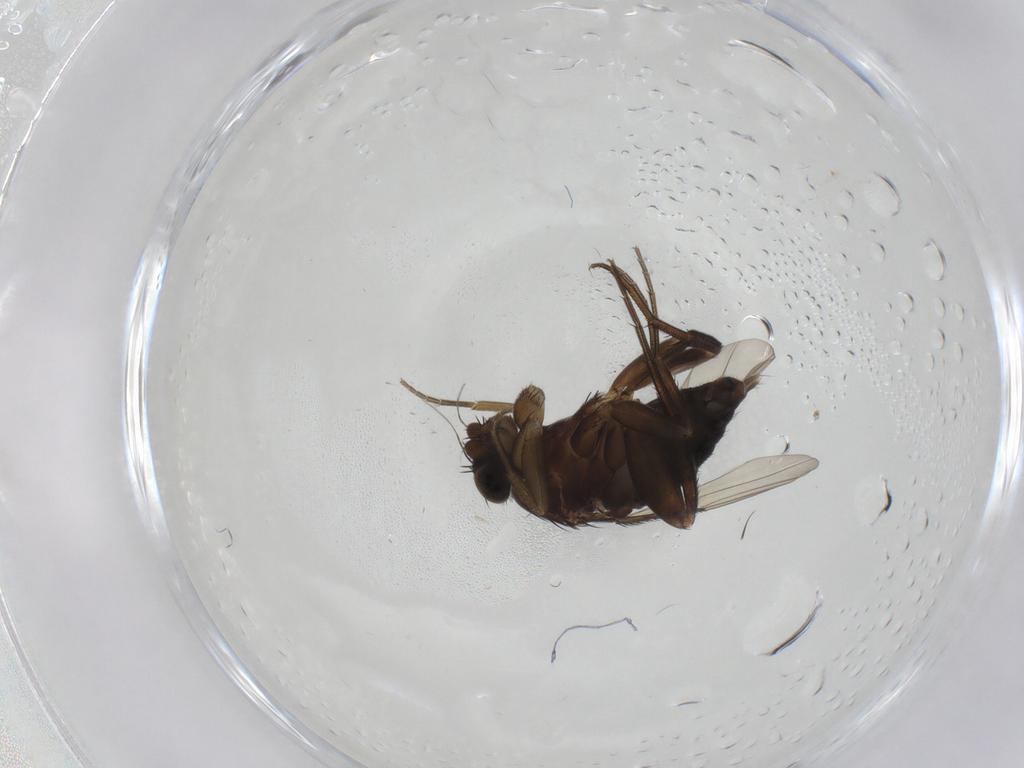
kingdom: Animalia
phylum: Arthropoda
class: Insecta
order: Diptera
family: Phoridae
